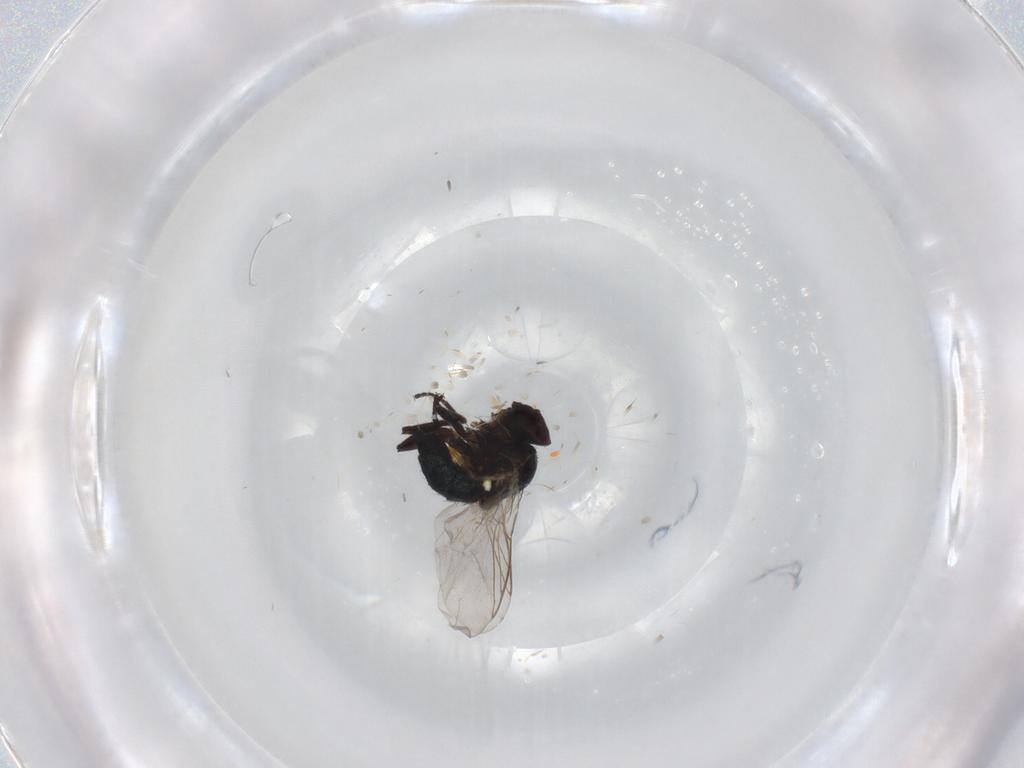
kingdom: Animalia
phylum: Arthropoda
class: Insecta
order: Diptera
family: Sciaridae
